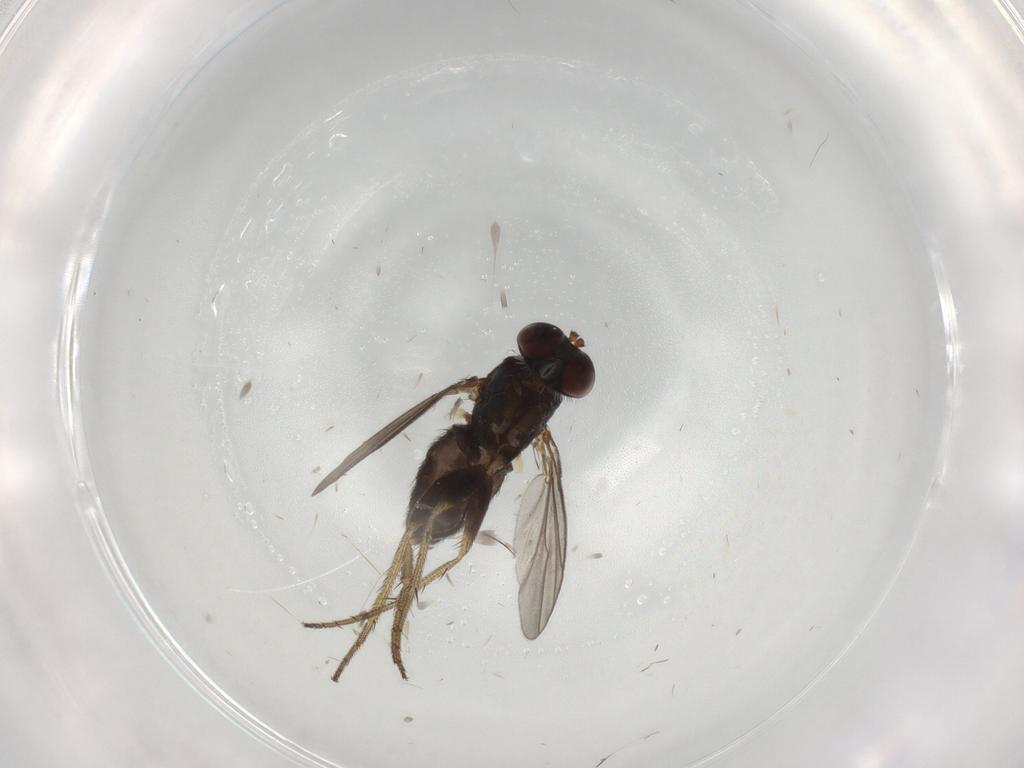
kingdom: Animalia
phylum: Arthropoda
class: Insecta
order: Diptera
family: Dolichopodidae
